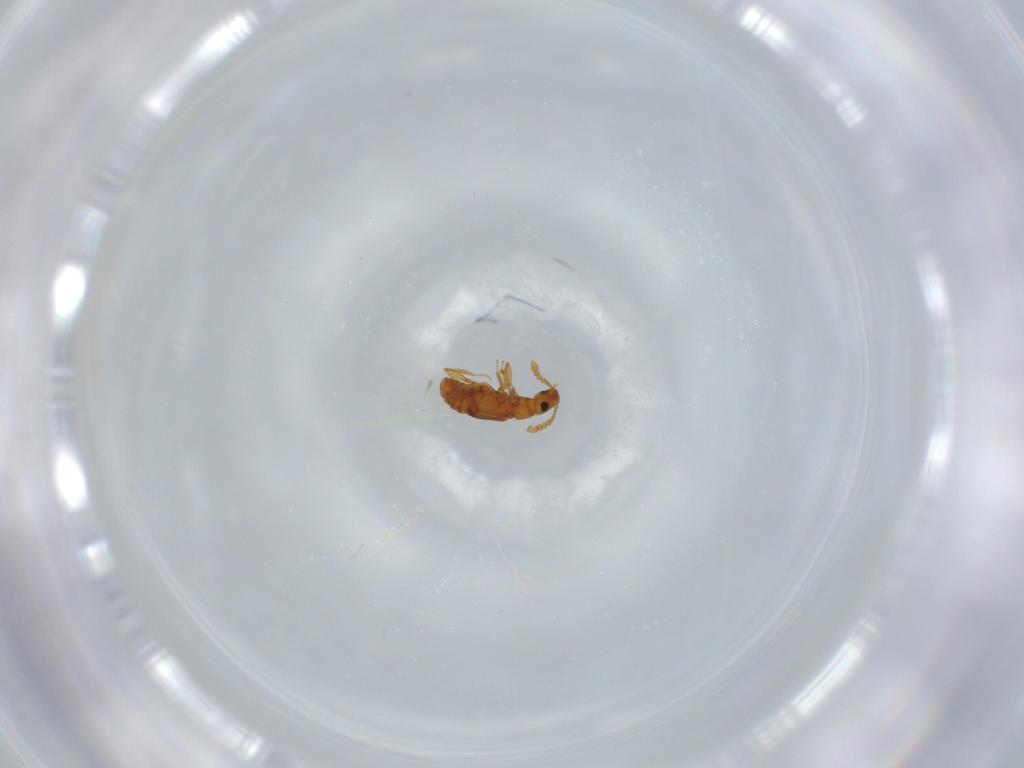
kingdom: Animalia
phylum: Arthropoda
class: Insecta
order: Coleoptera
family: Staphylinidae
